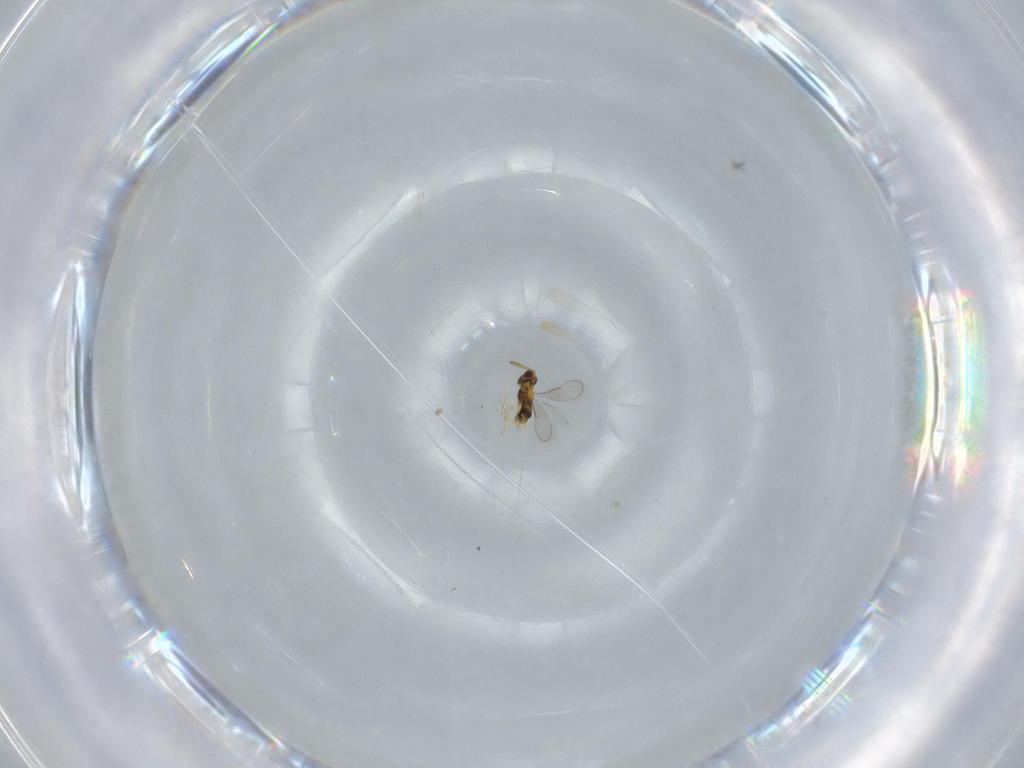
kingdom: Animalia
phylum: Arthropoda
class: Insecta
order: Hymenoptera
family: Aphelinidae
